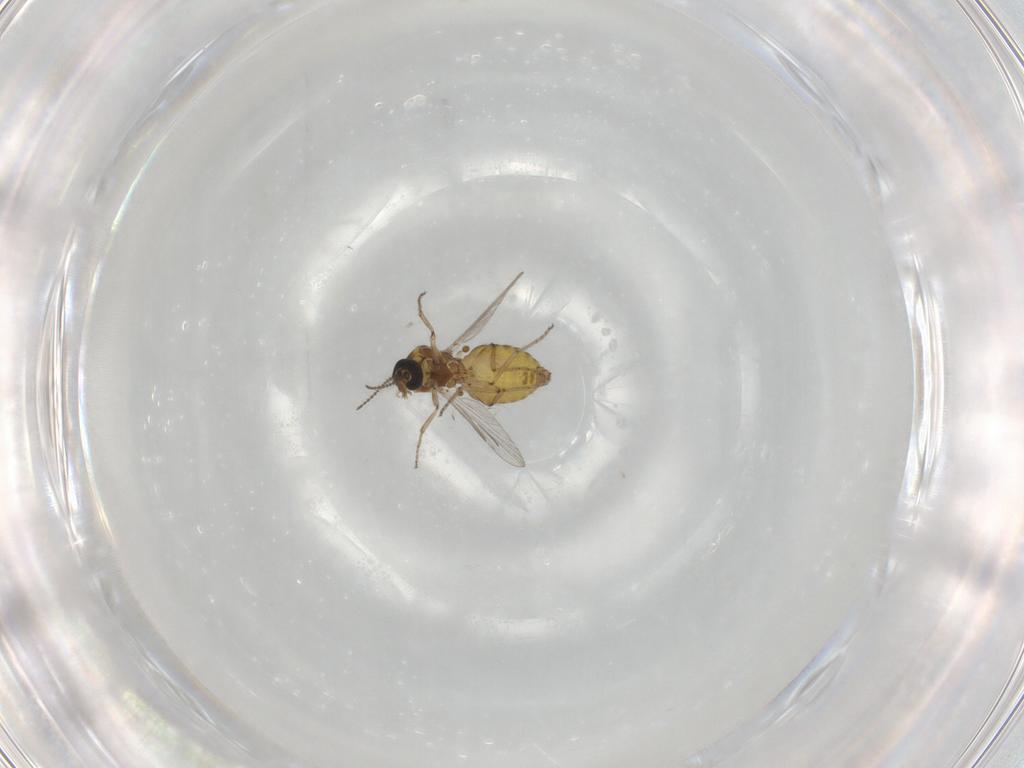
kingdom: Animalia
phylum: Arthropoda
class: Insecta
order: Diptera
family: Ceratopogonidae
